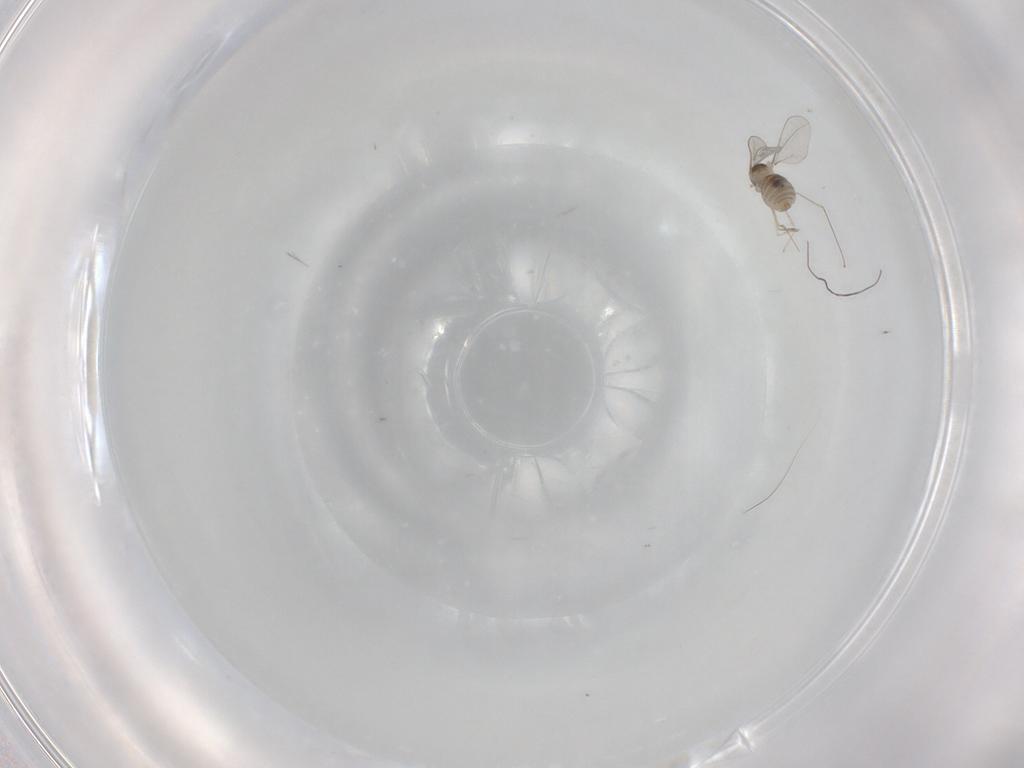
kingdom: Animalia
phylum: Arthropoda
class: Insecta
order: Diptera
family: Cecidomyiidae
